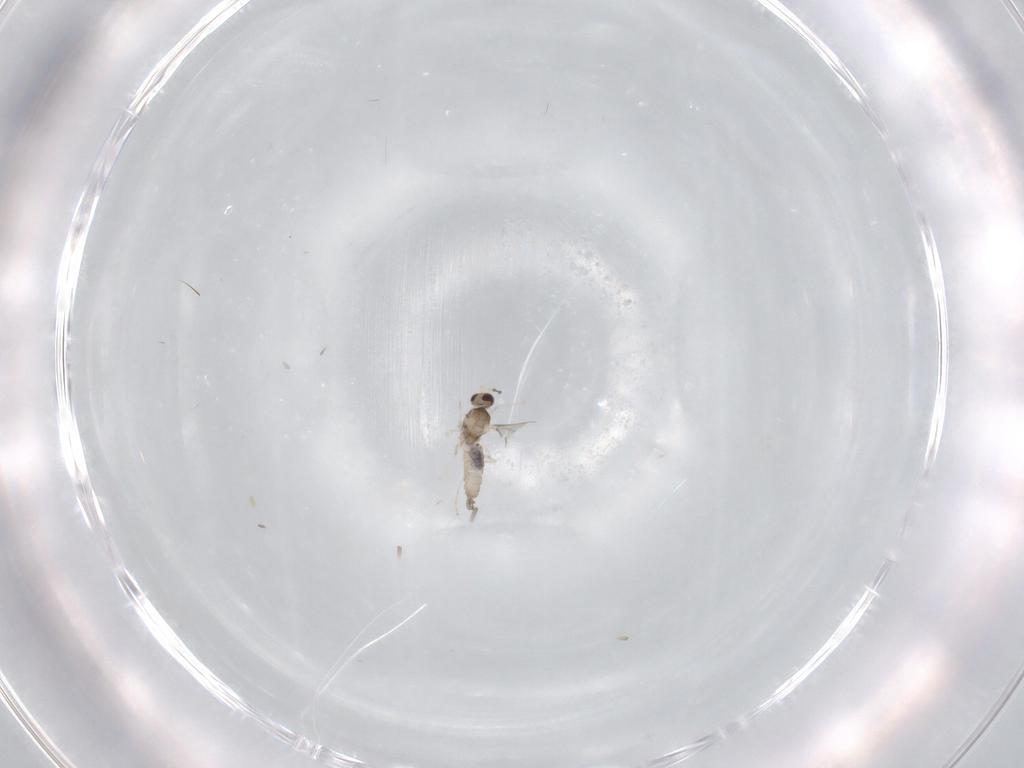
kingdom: Animalia
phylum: Arthropoda
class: Insecta
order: Diptera
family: Cecidomyiidae
